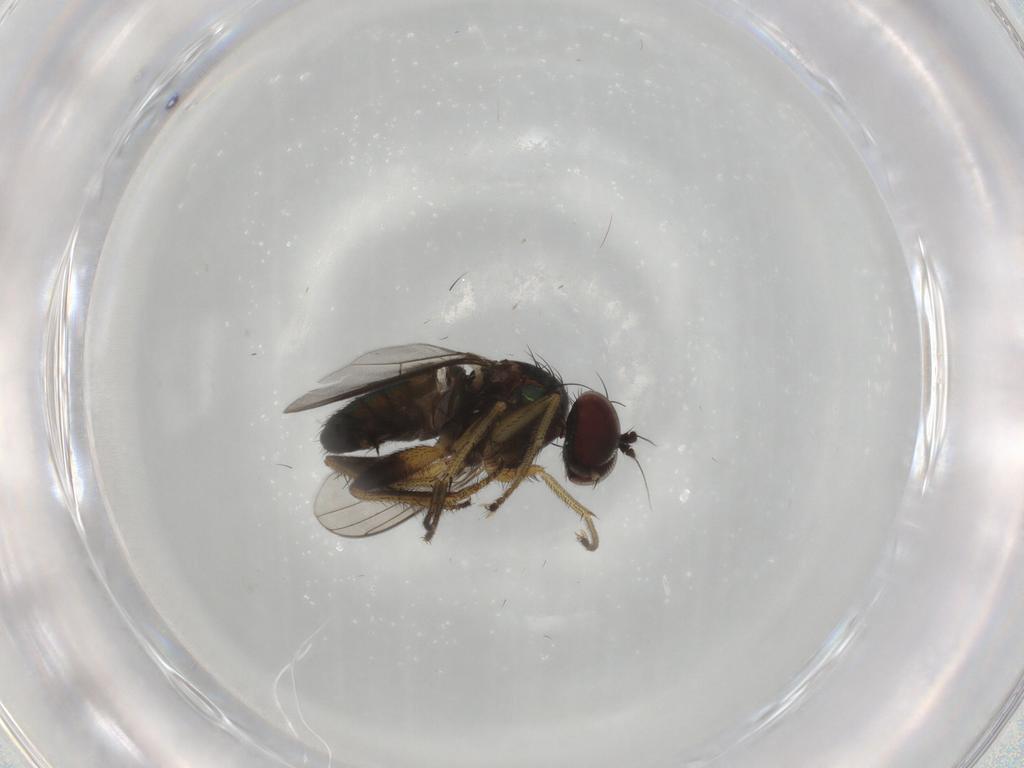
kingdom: Animalia
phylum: Arthropoda
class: Insecta
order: Diptera
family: Dolichopodidae
